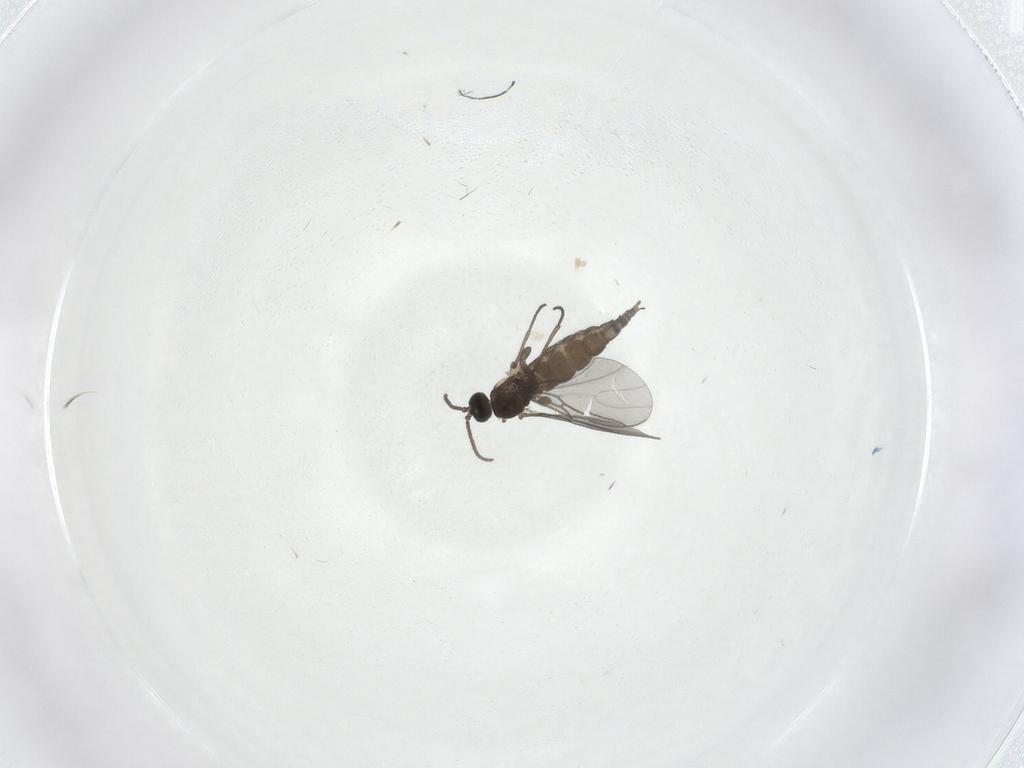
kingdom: Animalia
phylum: Arthropoda
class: Insecta
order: Diptera
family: Sciaridae
